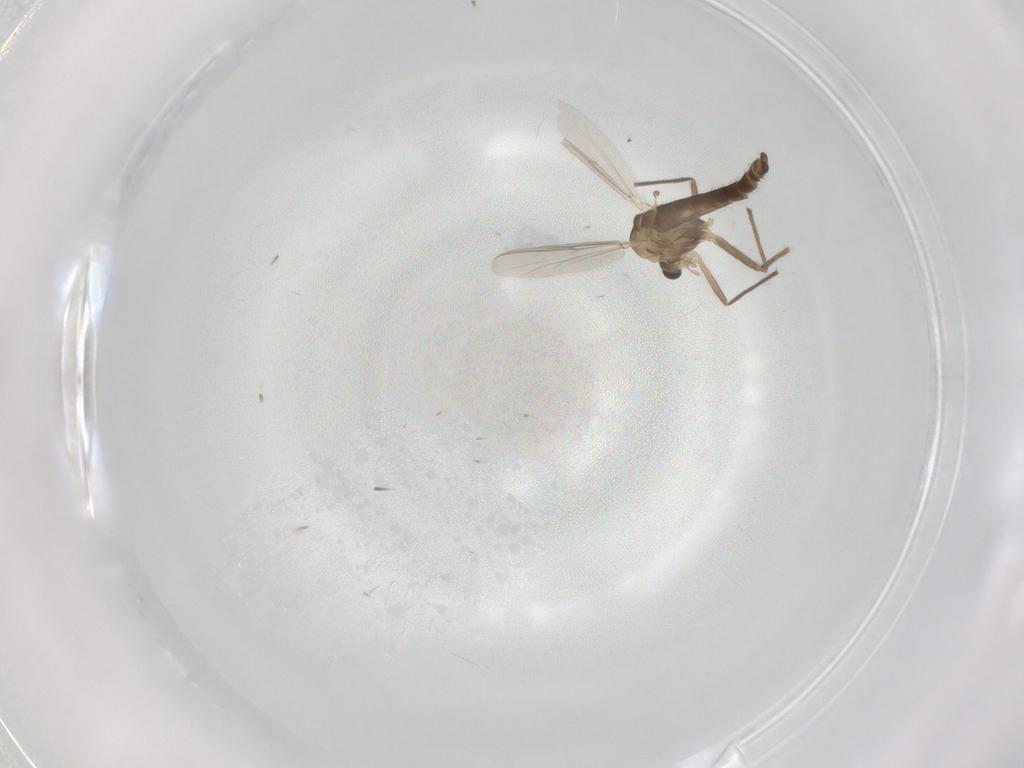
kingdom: Animalia
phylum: Arthropoda
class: Insecta
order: Diptera
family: Chironomidae
